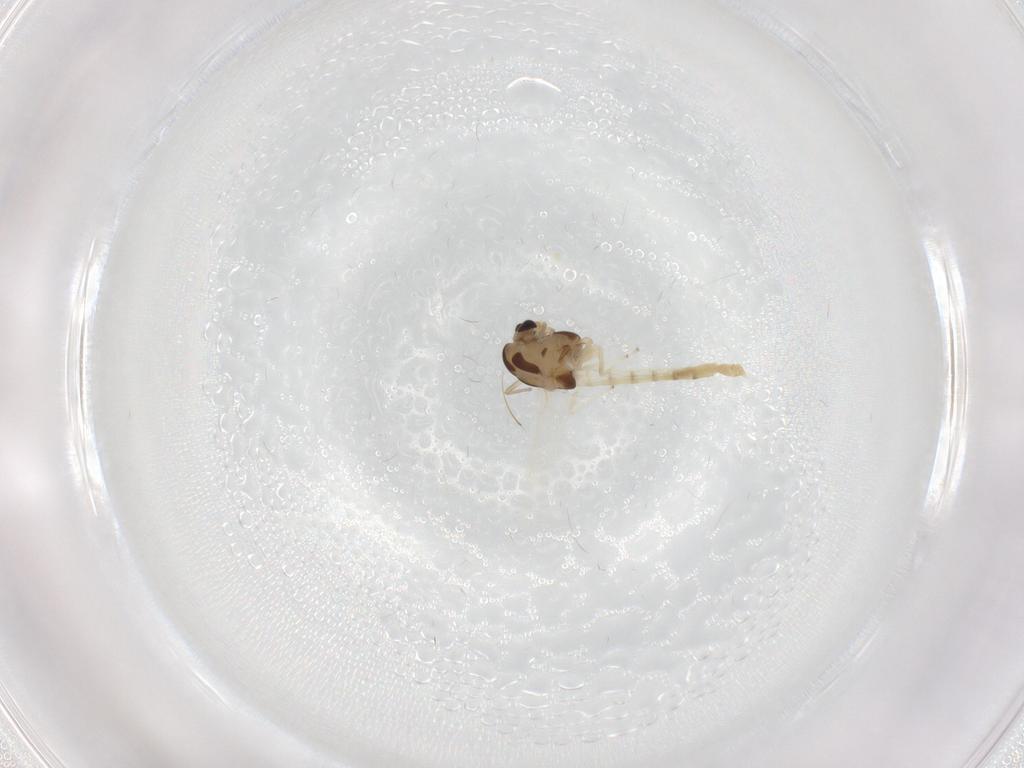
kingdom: Animalia
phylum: Arthropoda
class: Insecta
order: Diptera
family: Chironomidae
